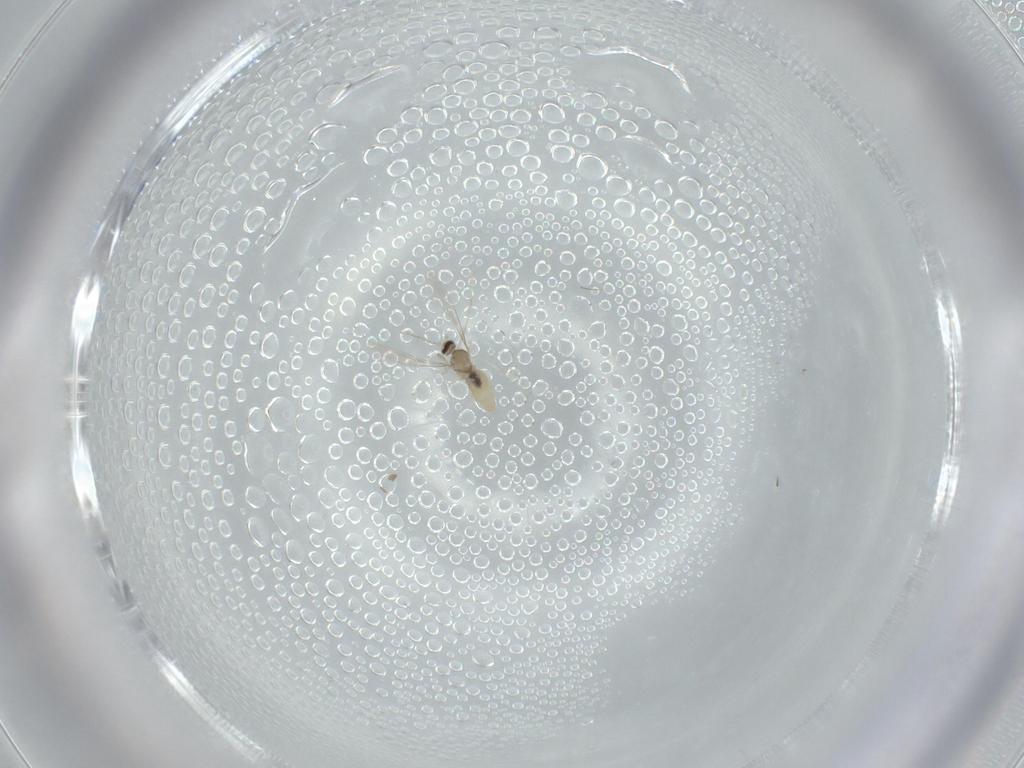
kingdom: Animalia
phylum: Arthropoda
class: Insecta
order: Diptera
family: Milichiidae
